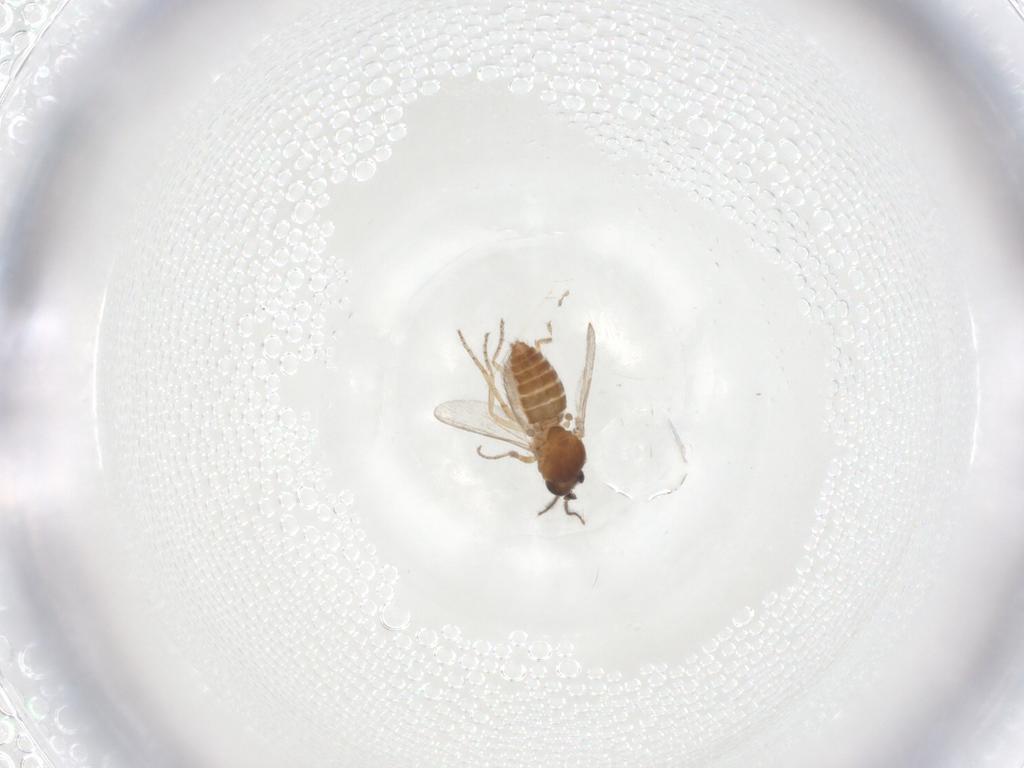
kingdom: Animalia
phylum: Arthropoda
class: Insecta
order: Diptera
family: Ceratopogonidae
